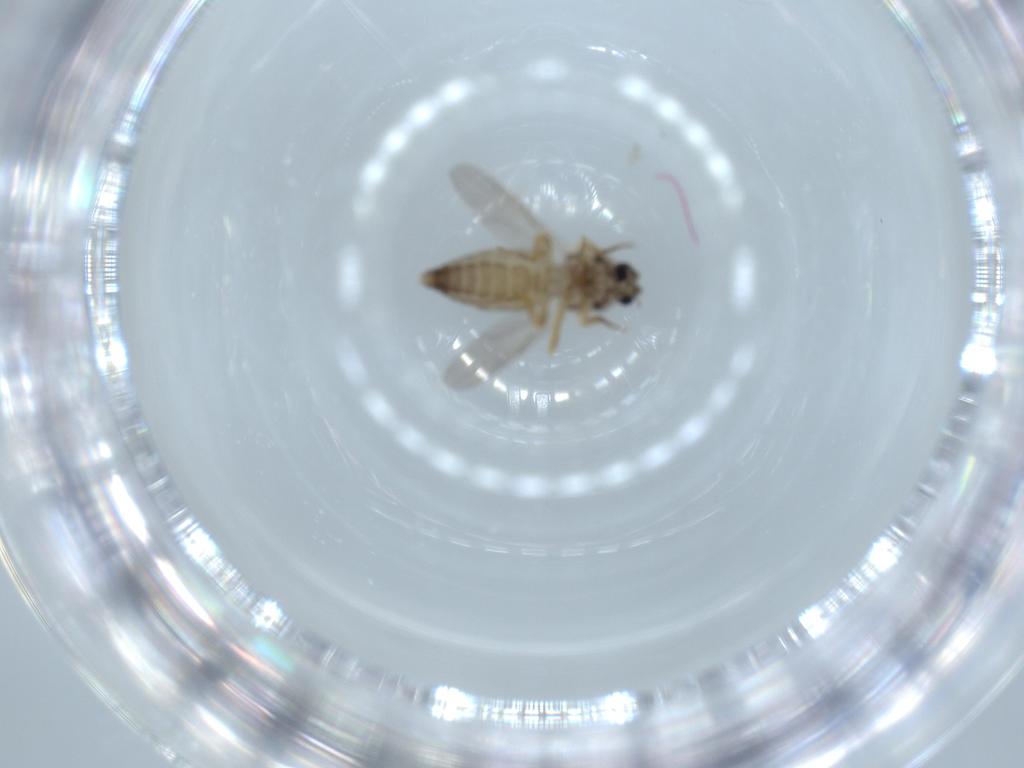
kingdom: Animalia
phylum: Arthropoda
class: Insecta
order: Diptera
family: Ceratopogonidae
